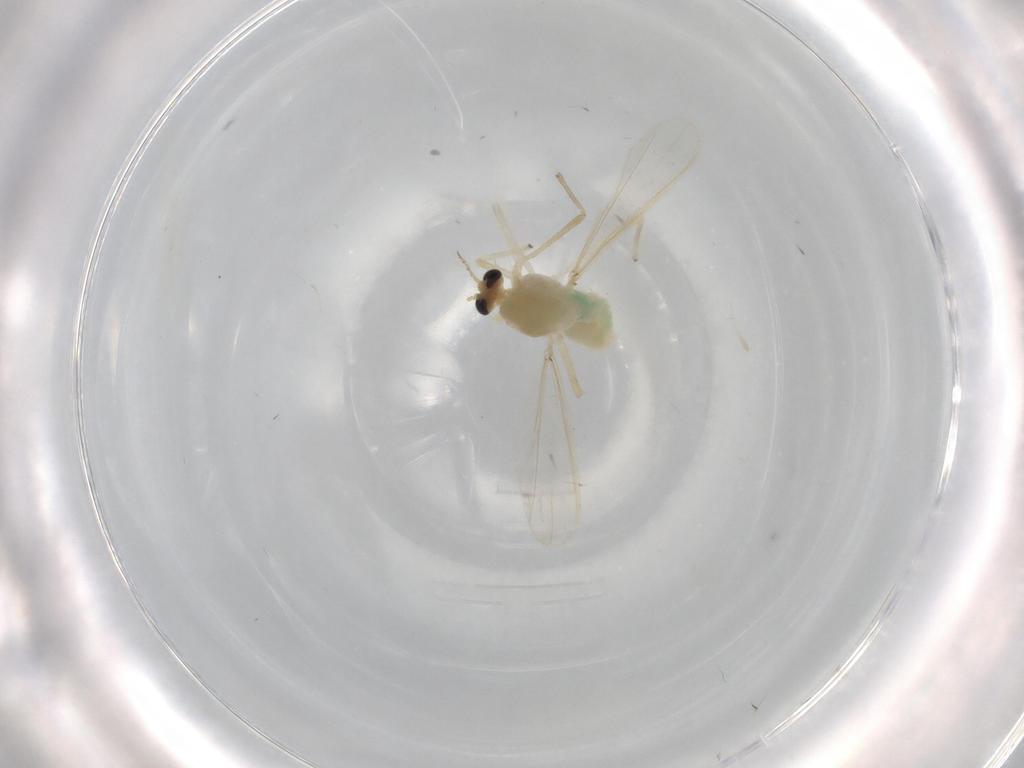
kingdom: Animalia
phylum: Arthropoda
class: Insecta
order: Diptera
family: Chironomidae
